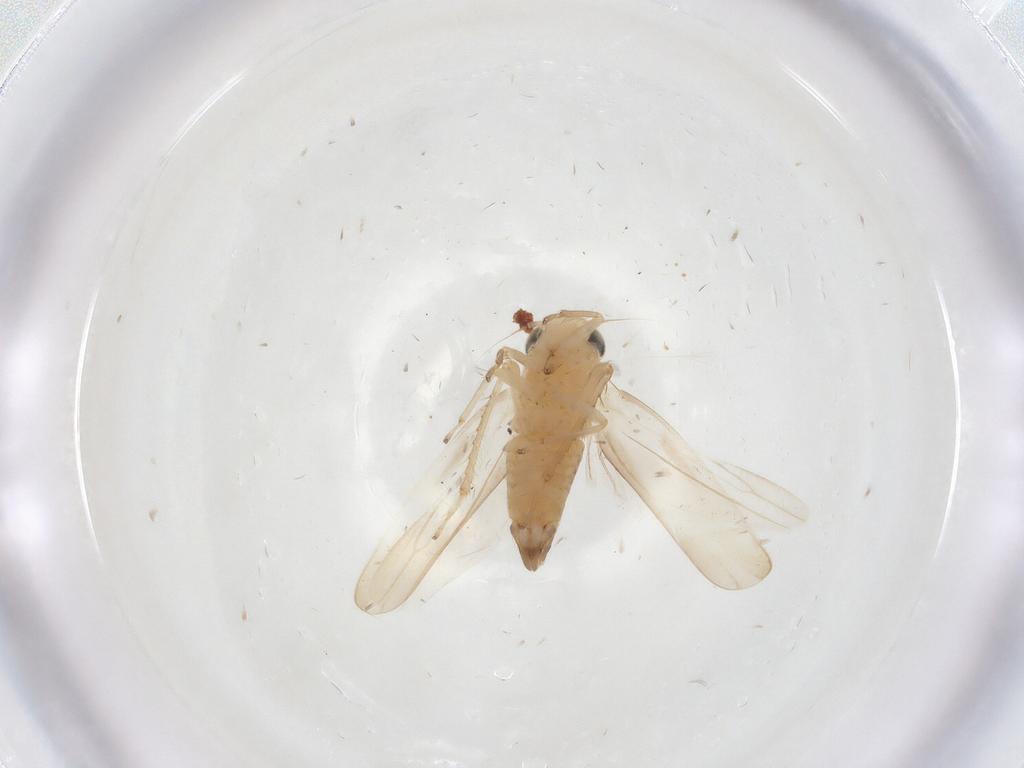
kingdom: Animalia
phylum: Arthropoda
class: Insecta
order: Hemiptera
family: Cicadellidae
